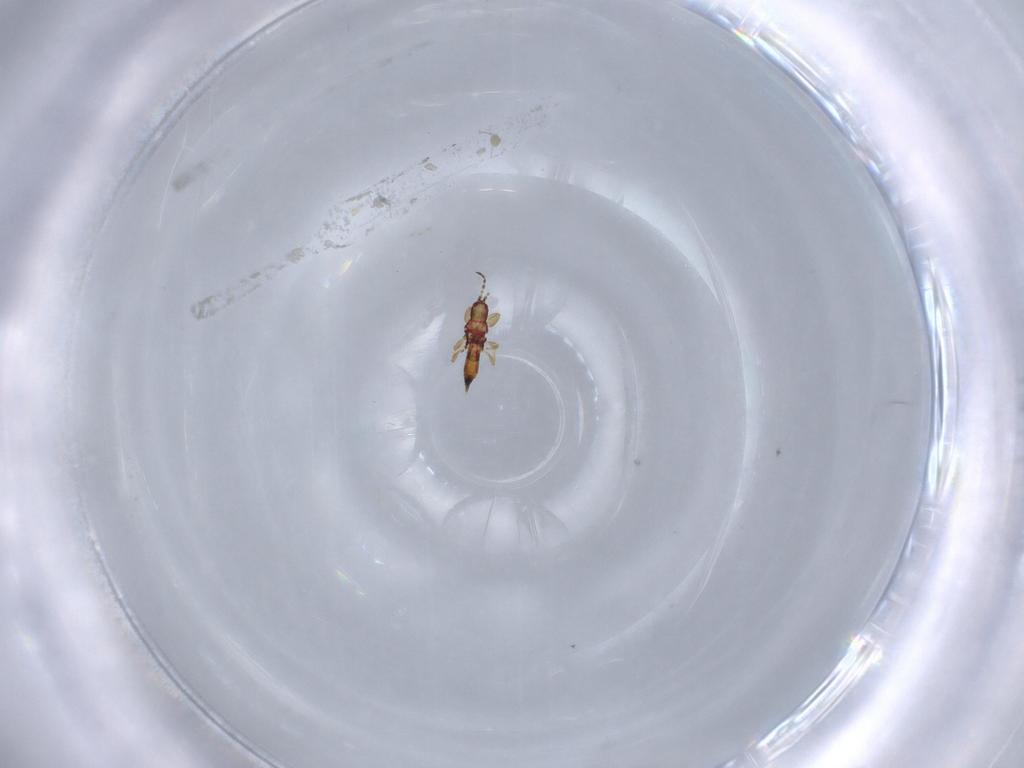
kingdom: Animalia
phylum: Arthropoda
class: Insecta
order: Thysanoptera
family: Phlaeothripidae
